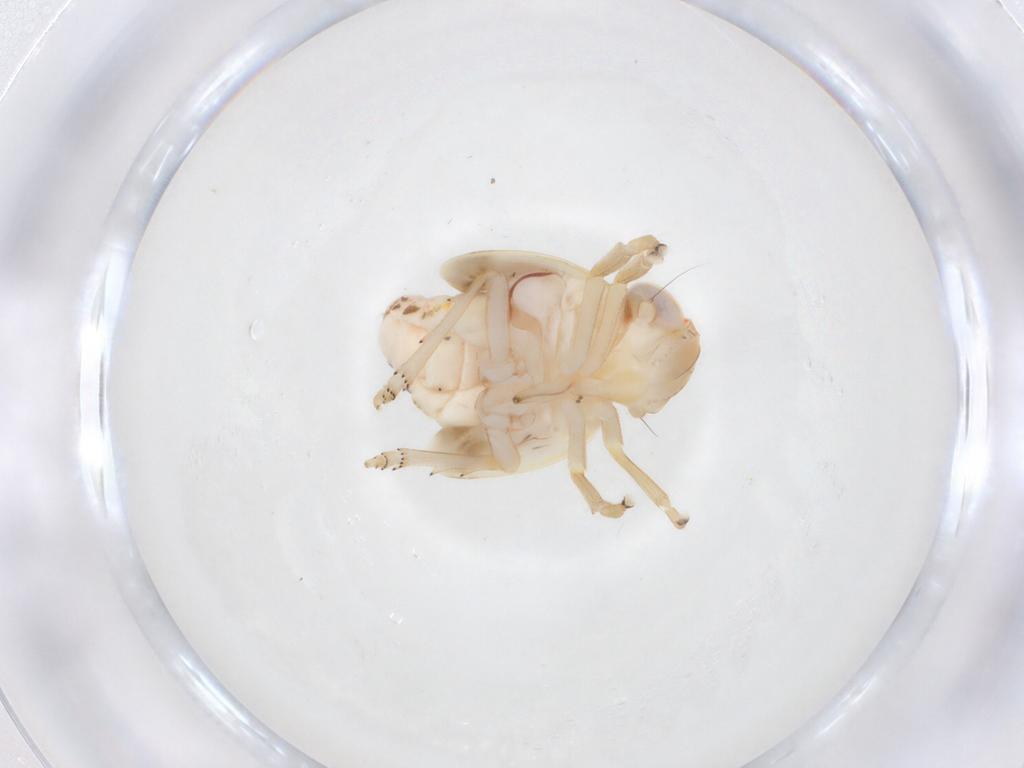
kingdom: Animalia
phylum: Arthropoda
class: Insecta
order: Hemiptera
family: Nogodinidae
